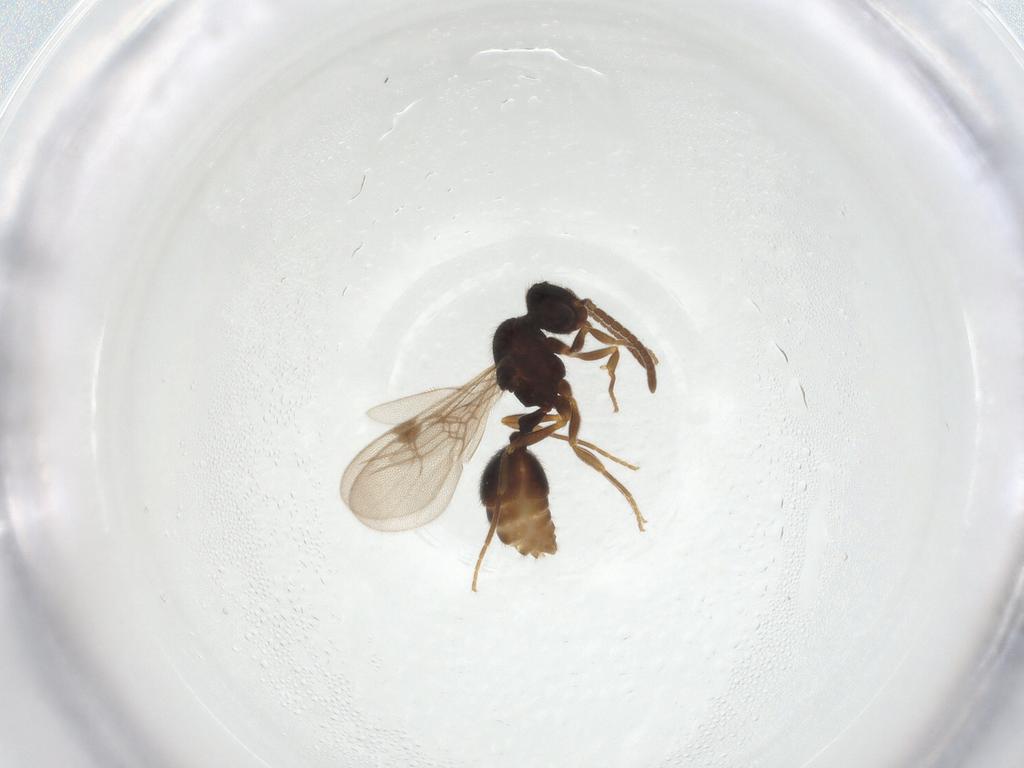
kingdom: Animalia
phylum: Arthropoda
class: Insecta
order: Hymenoptera
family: Formicidae
